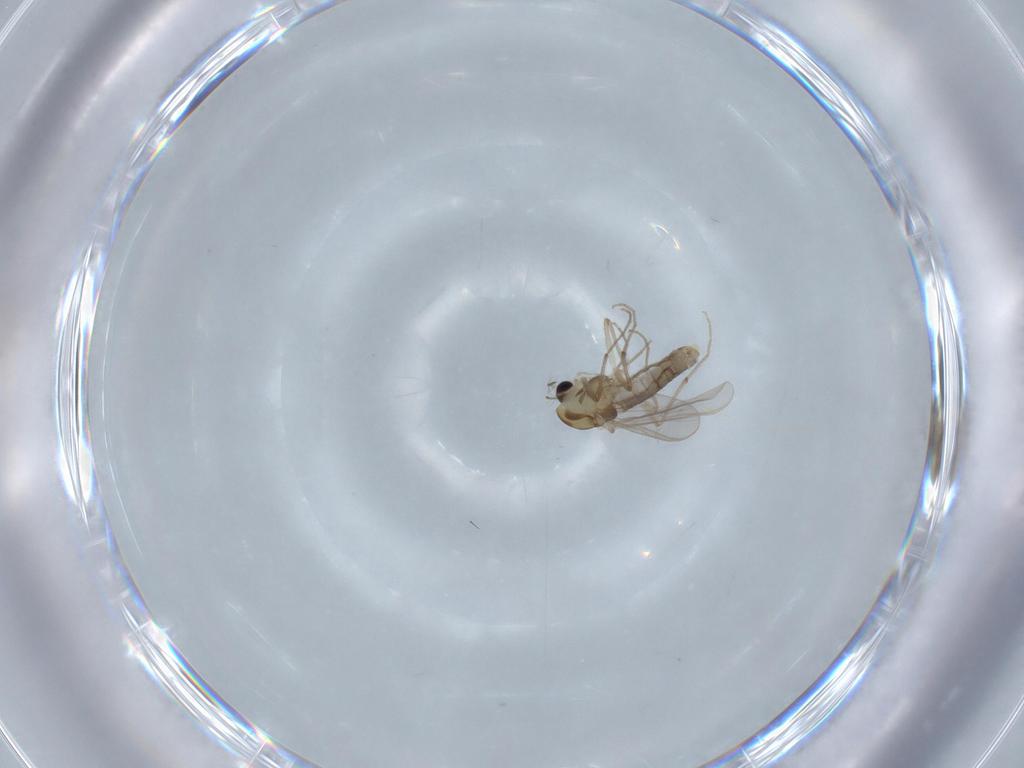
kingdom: Animalia
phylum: Arthropoda
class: Insecta
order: Diptera
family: Chironomidae
